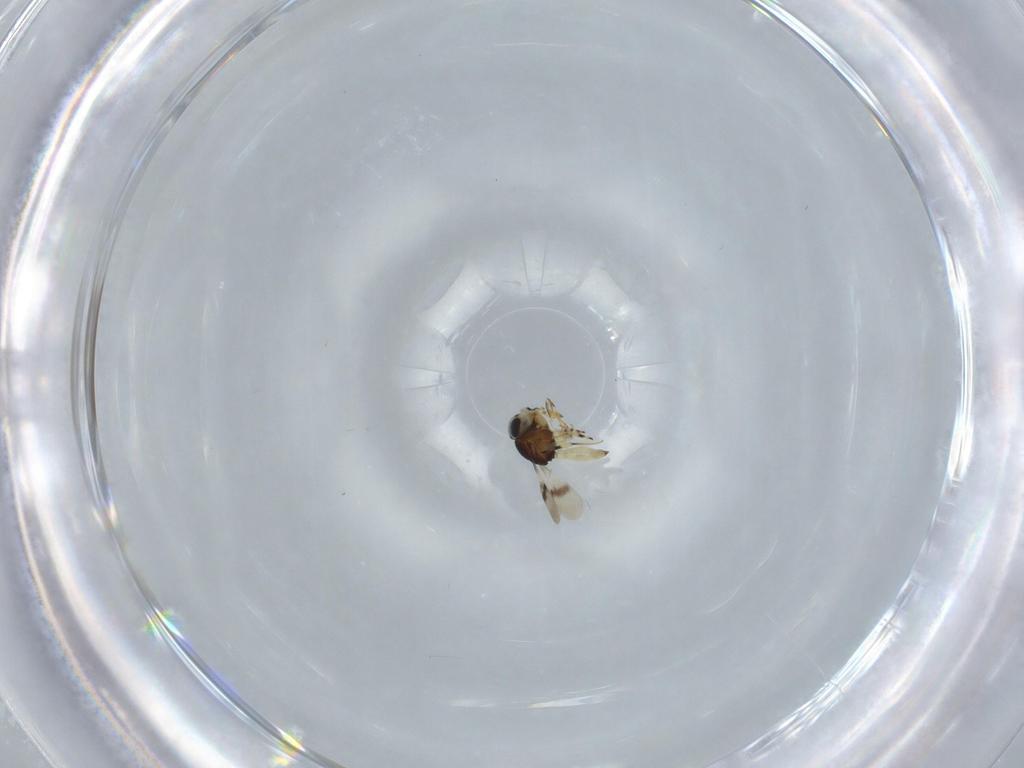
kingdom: Animalia
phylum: Arthropoda
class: Insecta
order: Hymenoptera
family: Scelionidae
